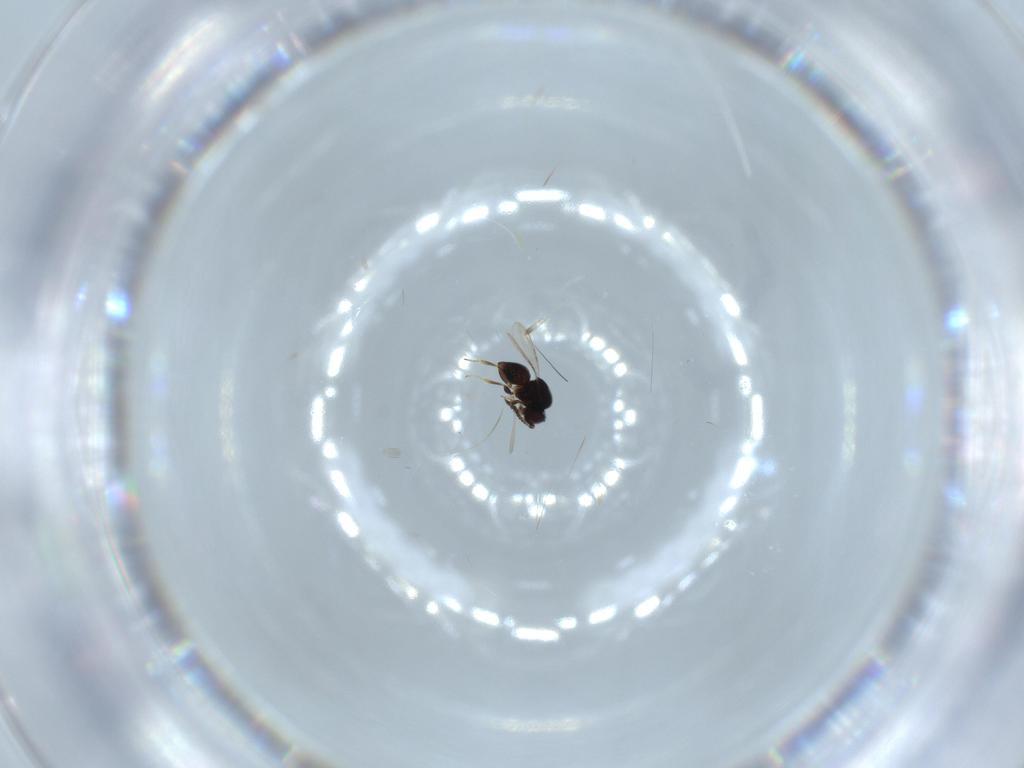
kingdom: Animalia
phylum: Arthropoda
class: Insecta
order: Hymenoptera
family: Ceraphronidae
